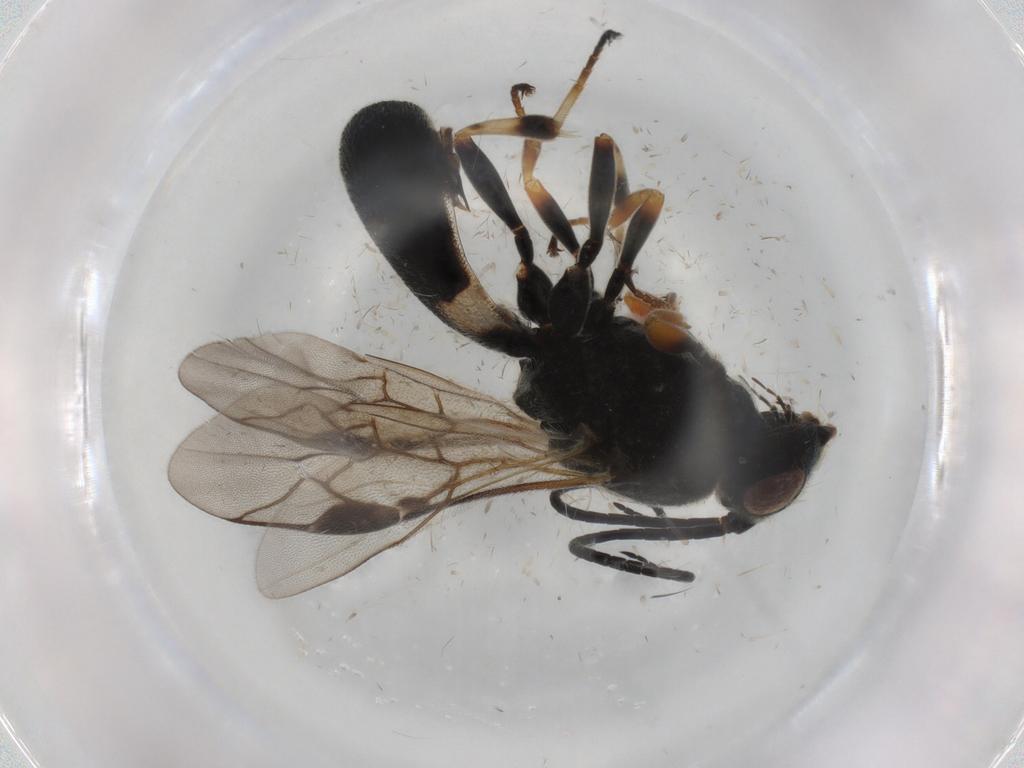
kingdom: Animalia
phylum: Arthropoda
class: Insecta
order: Hymenoptera
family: Braconidae
